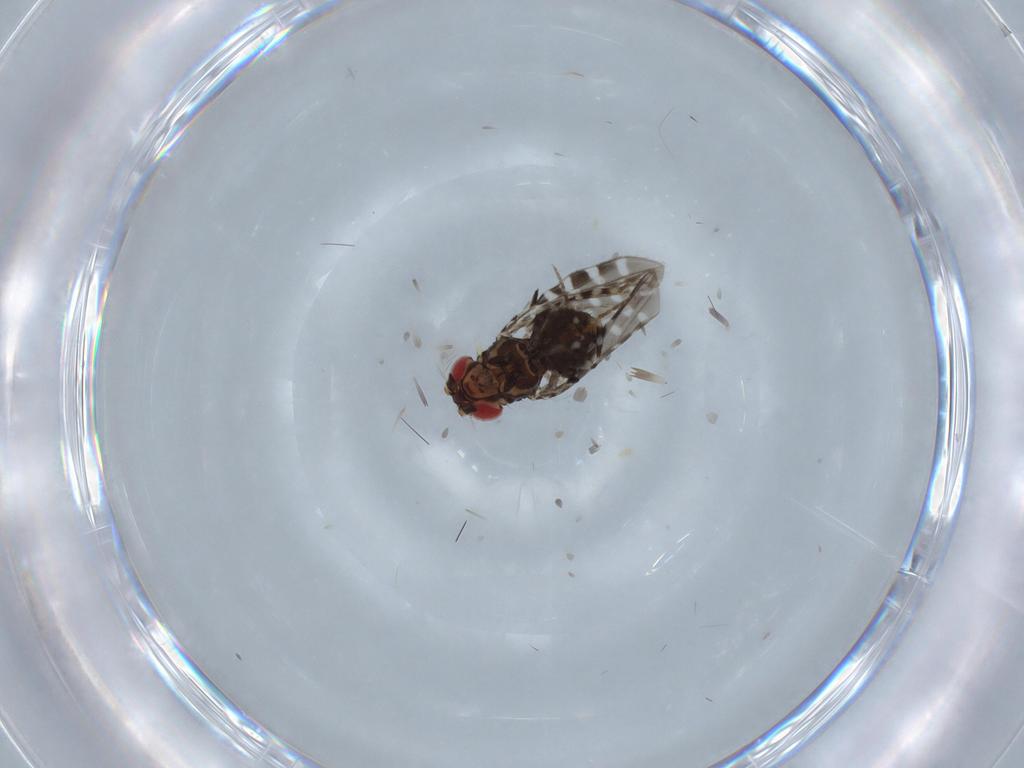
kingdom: Animalia
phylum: Arthropoda
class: Insecta
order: Diptera
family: Drosophilidae
